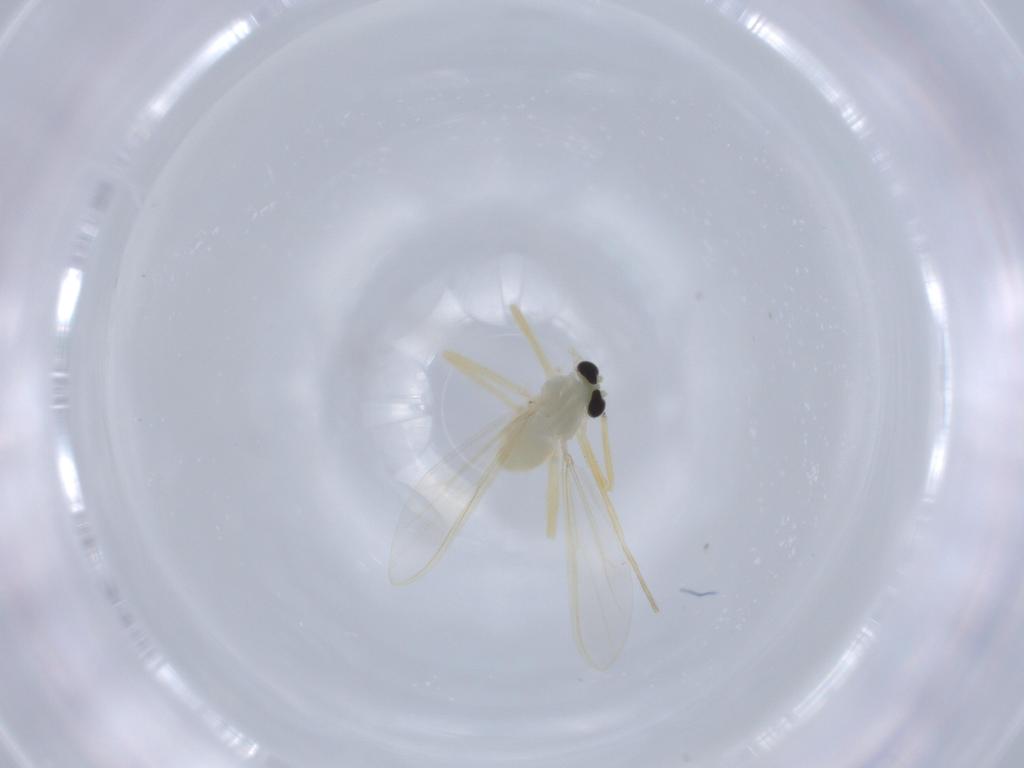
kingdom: Animalia
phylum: Arthropoda
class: Insecta
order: Diptera
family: Chironomidae
